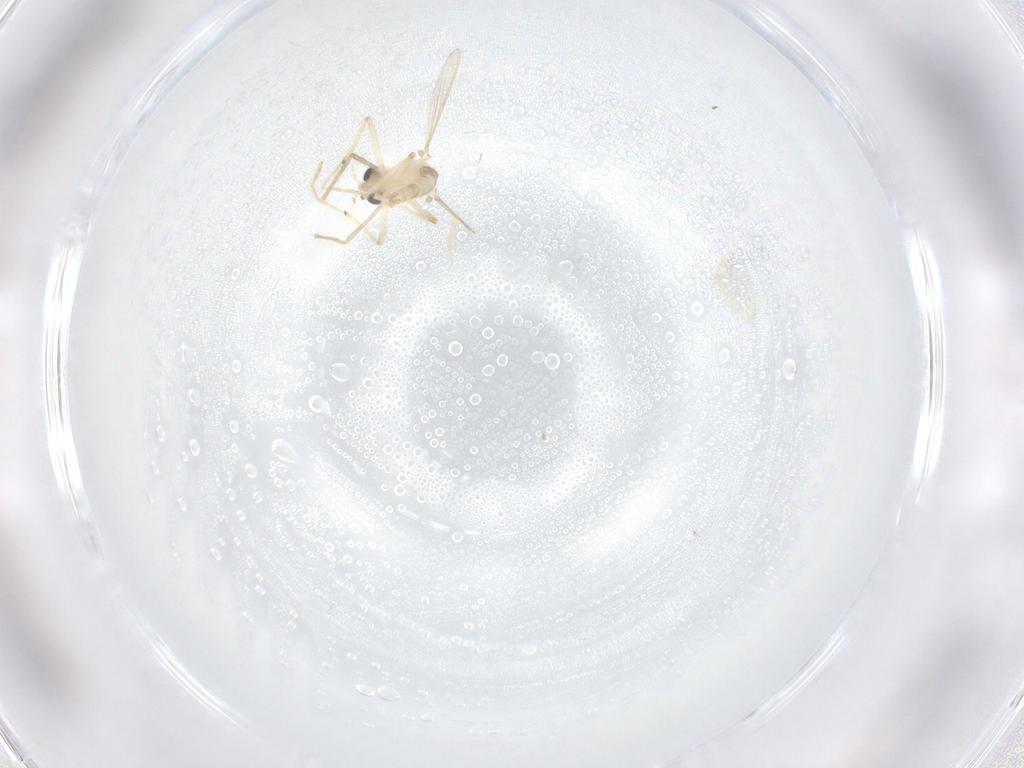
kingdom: Animalia
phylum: Arthropoda
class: Insecta
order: Diptera
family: Chironomidae
